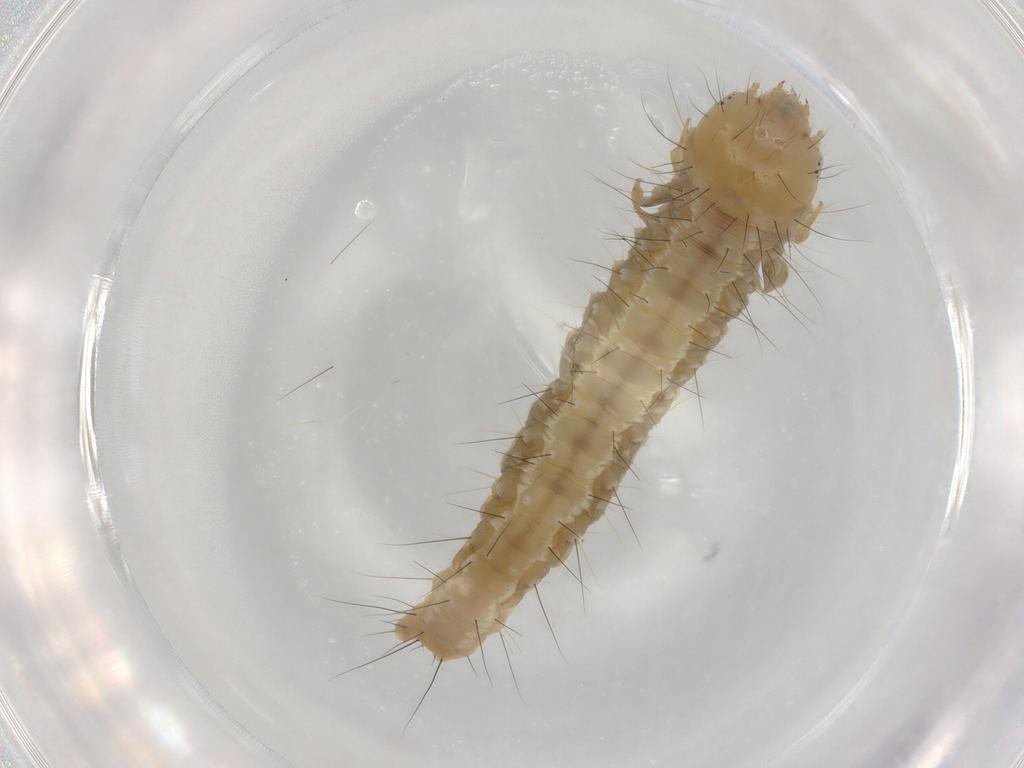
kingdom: Animalia
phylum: Arthropoda
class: Insecta
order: Lepidoptera
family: Gelechiidae
